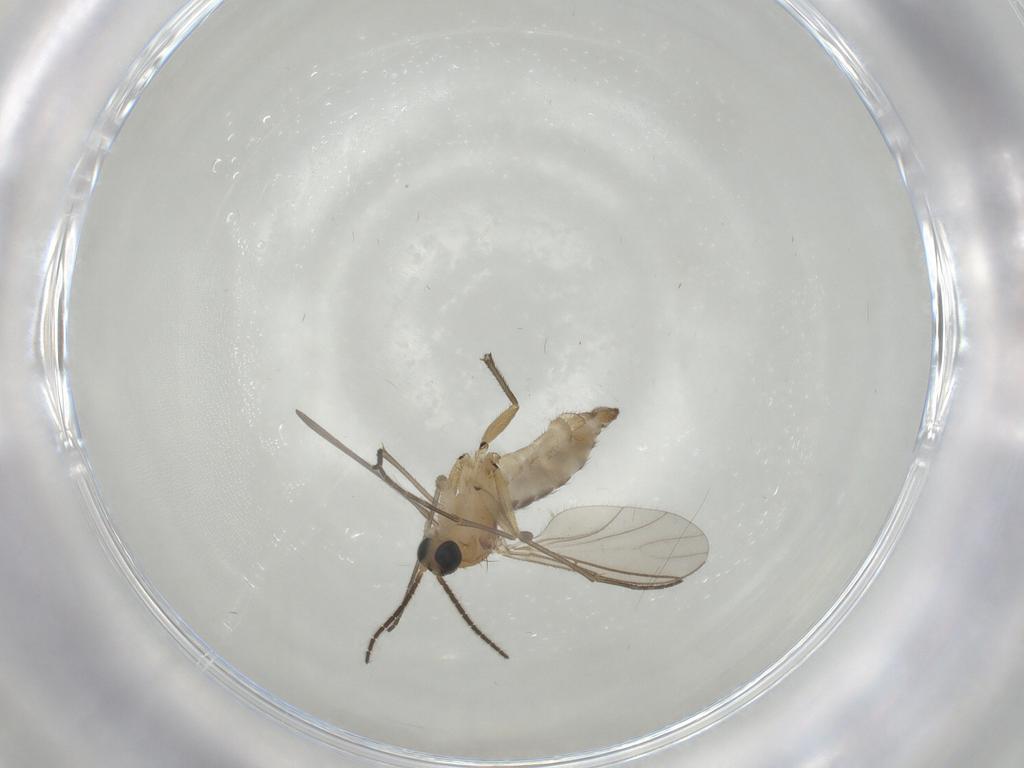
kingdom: Animalia
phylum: Arthropoda
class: Insecta
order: Diptera
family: Sciaridae
